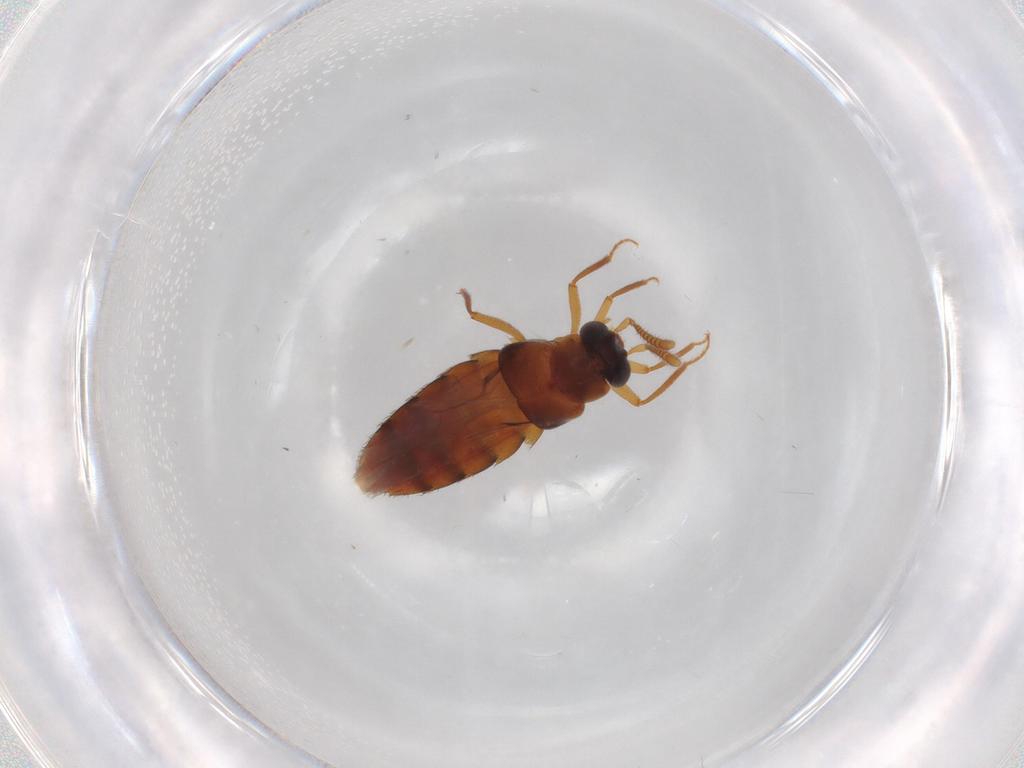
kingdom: Animalia
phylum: Arthropoda
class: Insecta
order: Coleoptera
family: Staphylinidae
